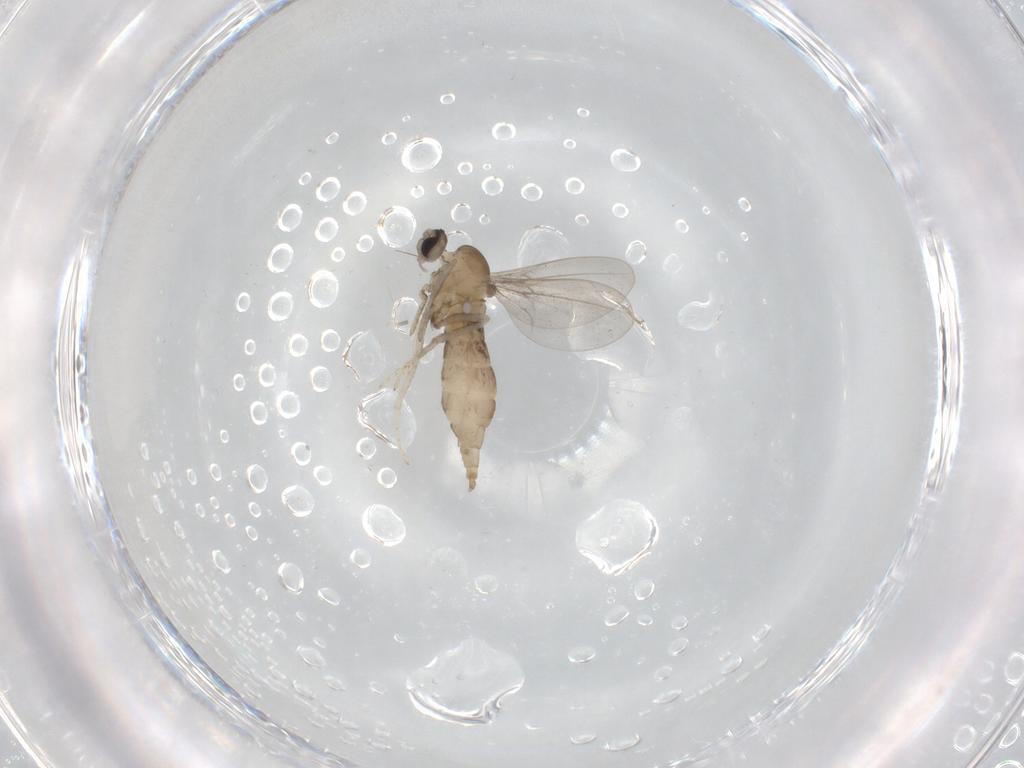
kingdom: Animalia
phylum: Arthropoda
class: Insecta
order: Diptera
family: Cecidomyiidae
